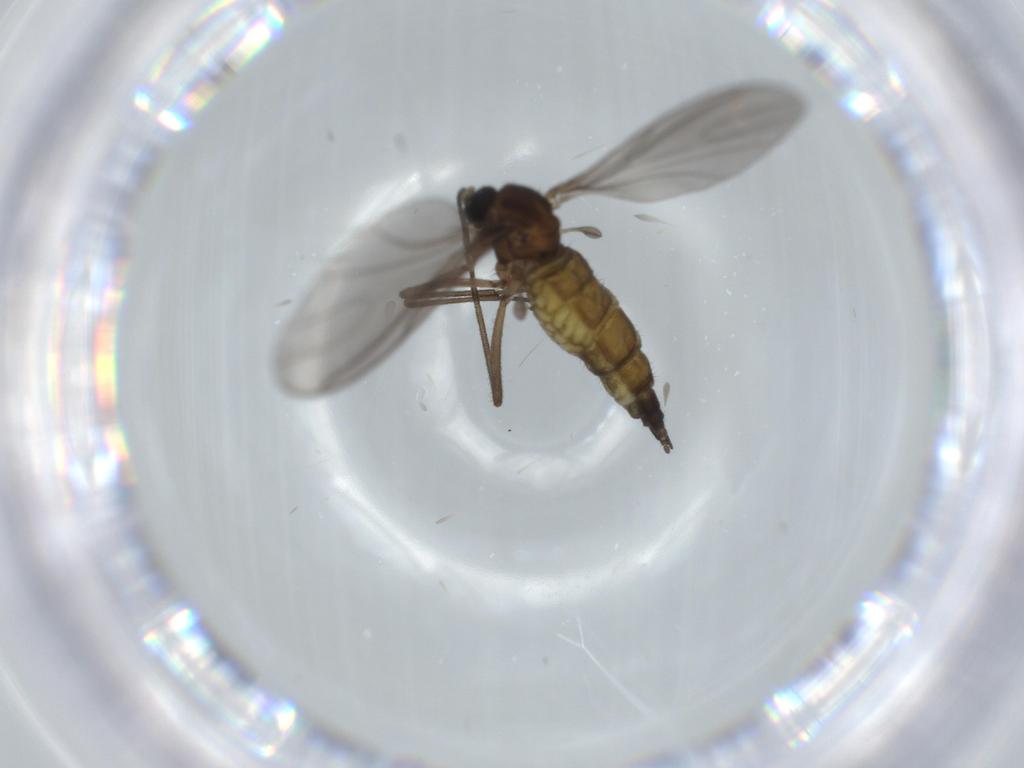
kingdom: Animalia
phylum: Arthropoda
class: Insecta
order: Diptera
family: Sciaridae
